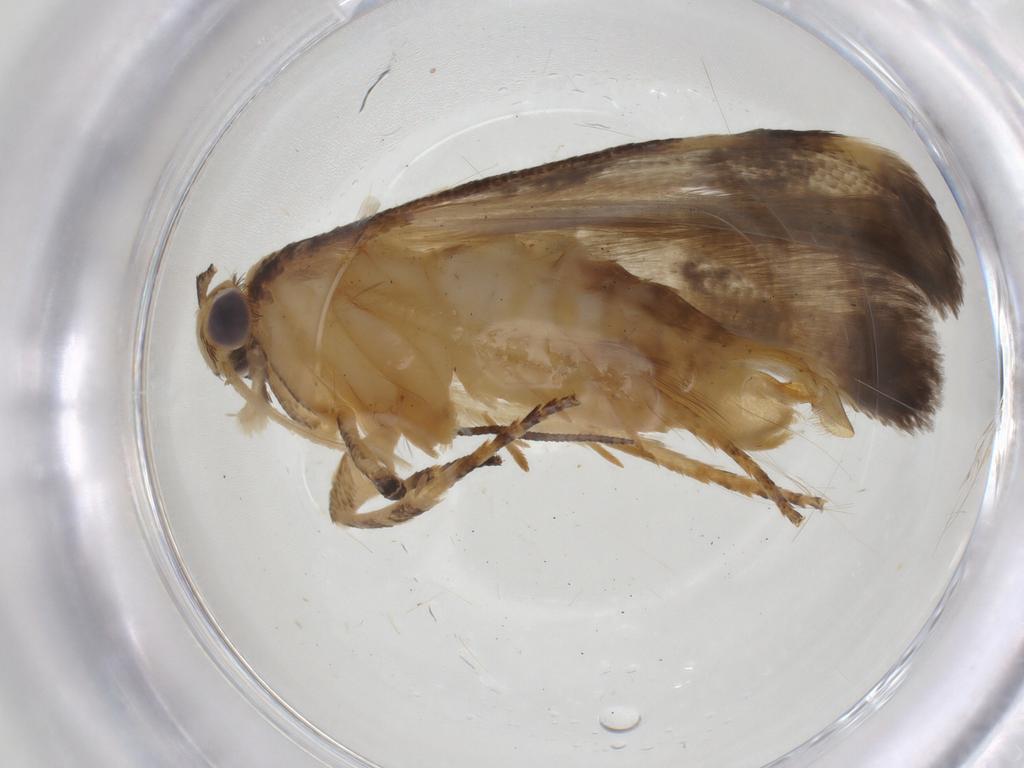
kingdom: Animalia
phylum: Arthropoda
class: Insecta
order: Lepidoptera
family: Gelechiidae
